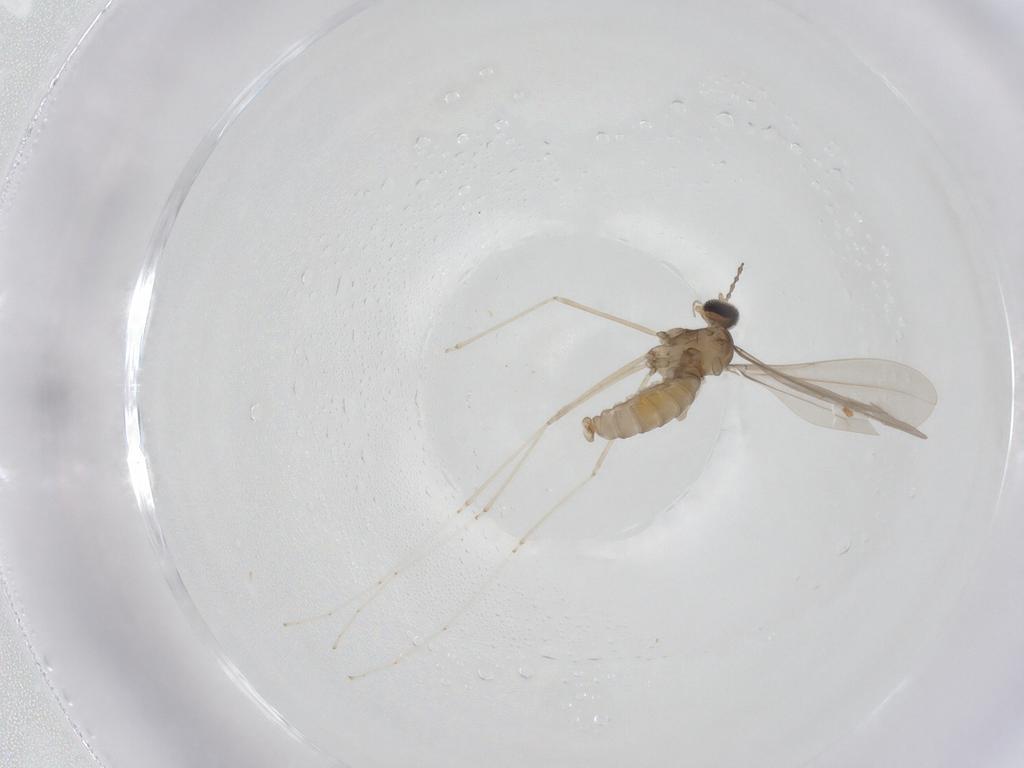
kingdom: Animalia
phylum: Arthropoda
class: Insecta
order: Diptera
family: Cecidomyiidae
